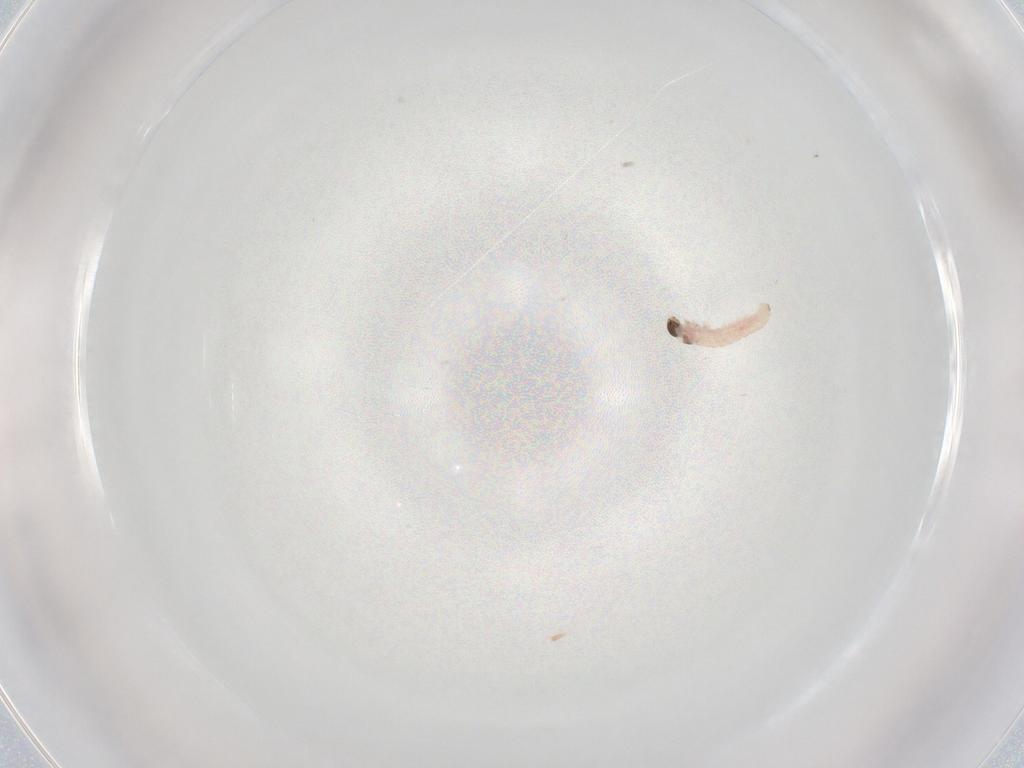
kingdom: Animalia
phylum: Arthropoda
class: Insecta
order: Lepidoptera
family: Blastobasidae
